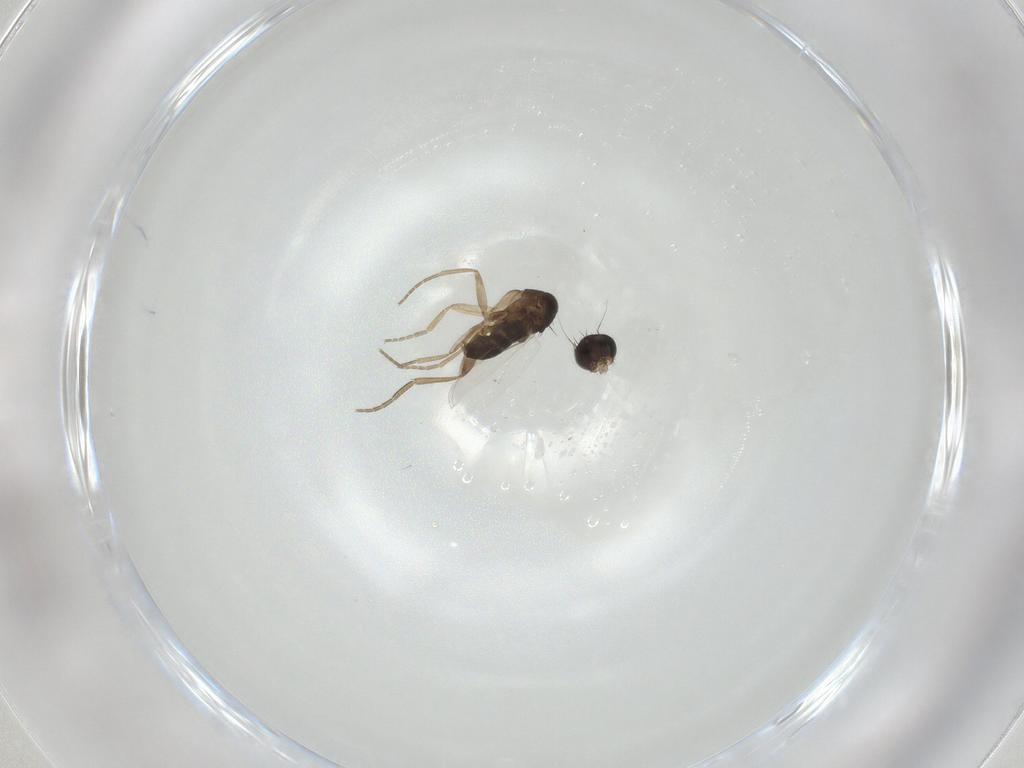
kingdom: Animalia
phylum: Arthropoda
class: Insecta
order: Diptera
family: Phoridae
